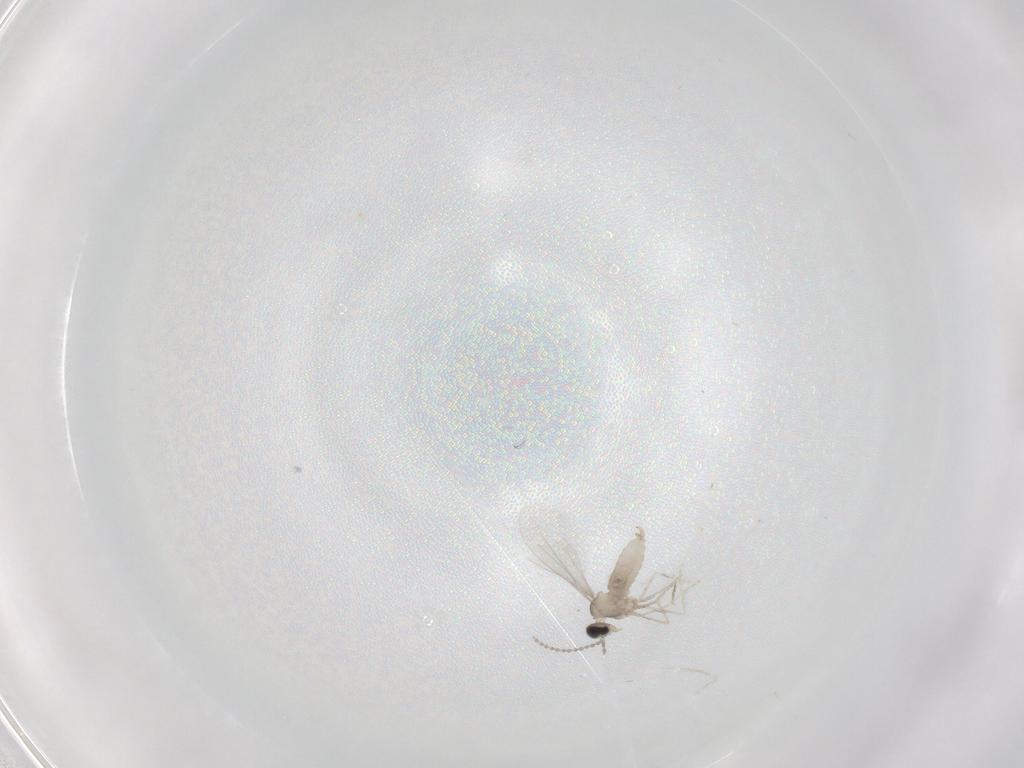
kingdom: Animalia
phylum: Arthropoda
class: Insecta
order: Diptera
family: Cecidomyiidae
